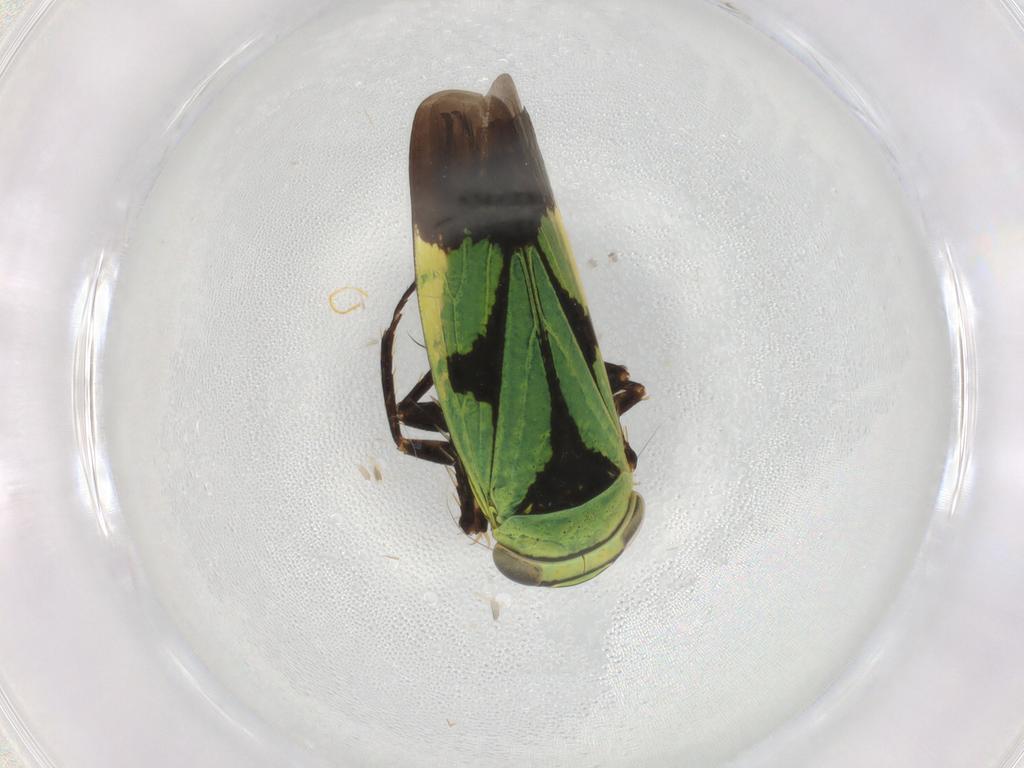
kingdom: Animalia
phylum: Arthropoda
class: Insecta
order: Hemiptera
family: Cicadellidae
